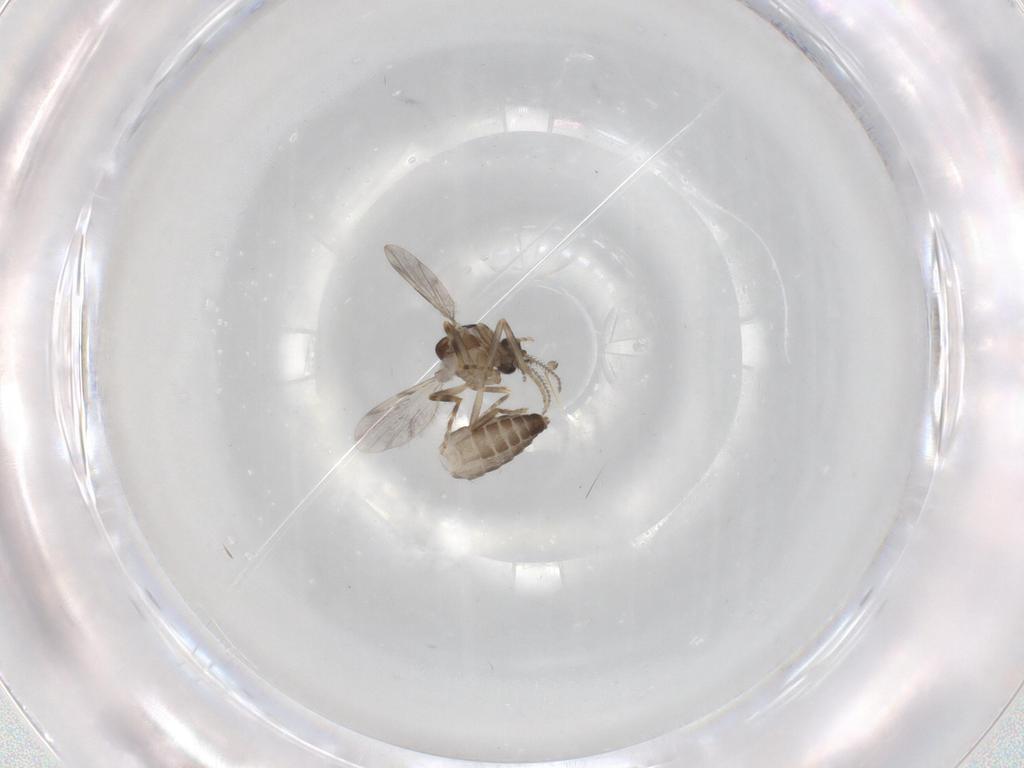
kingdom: Animalia
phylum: Arthropoda
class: Insecta
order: Diptera
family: Ceratopogonidae
